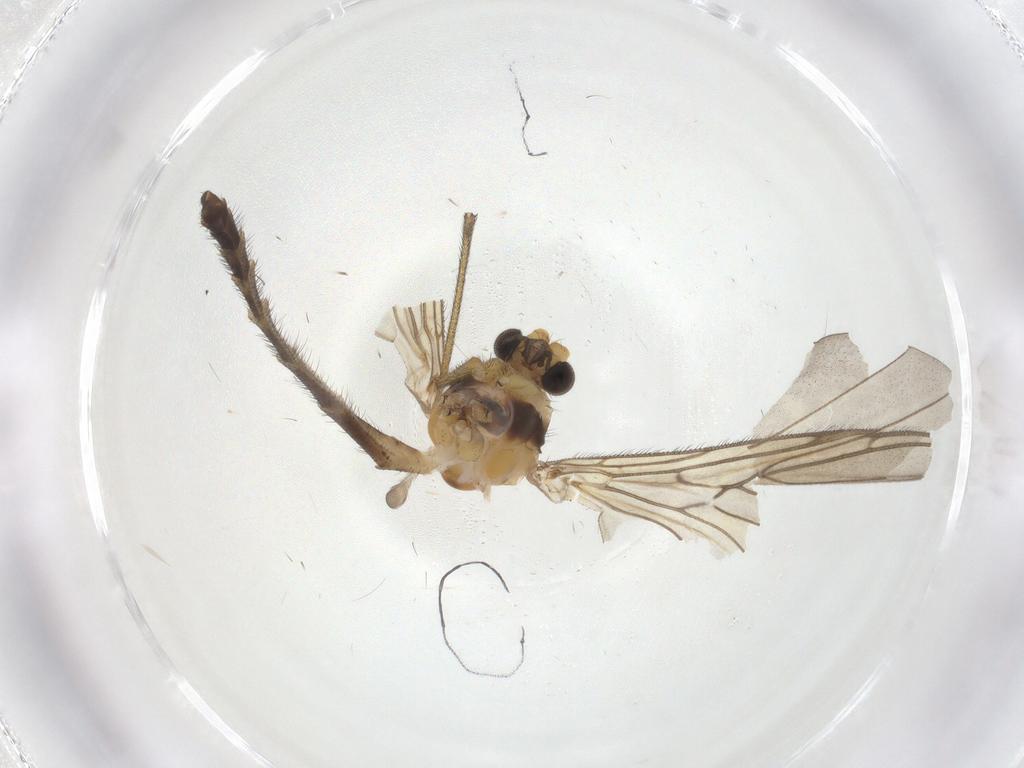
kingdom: Animalia
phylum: Arthropoda
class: Insecta
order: Diptera
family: Keroplatidae
